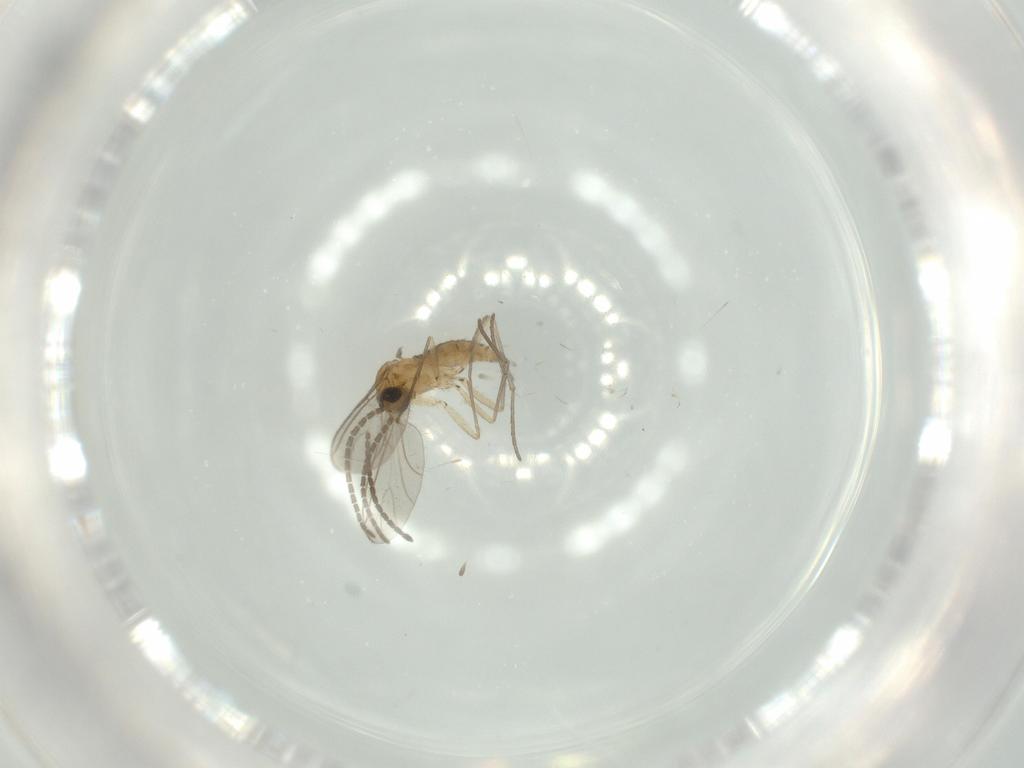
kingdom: Animalia
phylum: Arthropoda
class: Insecta
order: Diptera
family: Sciaridae
